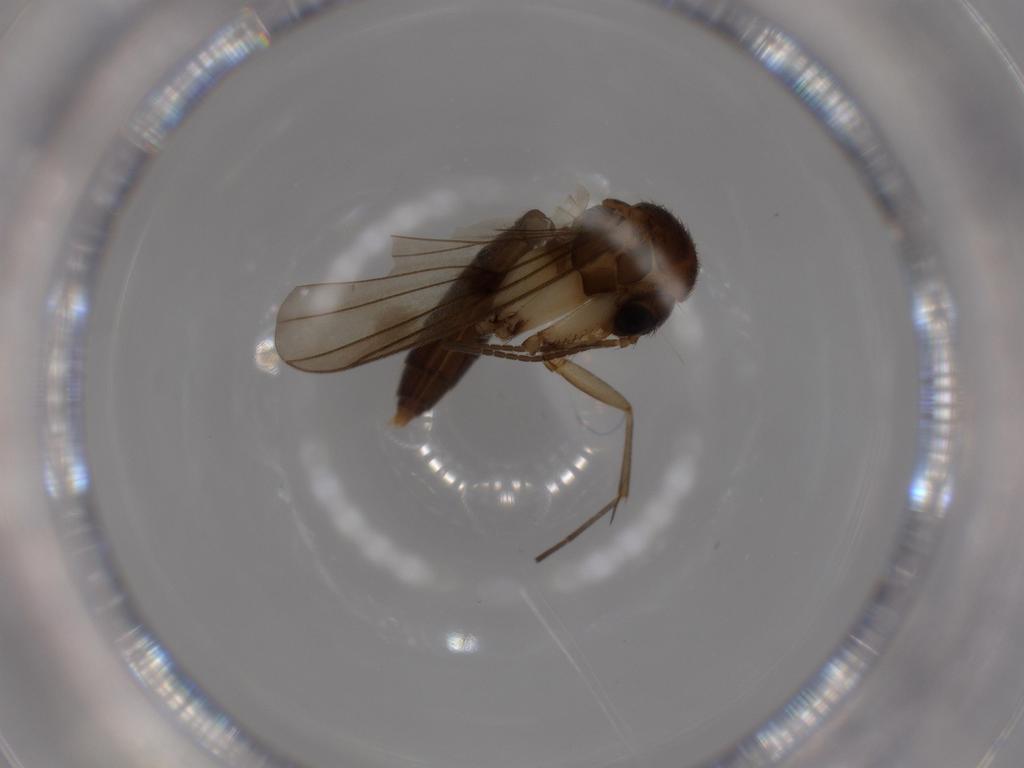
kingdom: Animalia
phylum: Arthropoda
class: Insecta
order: Diptera
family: Mycetophilidae
